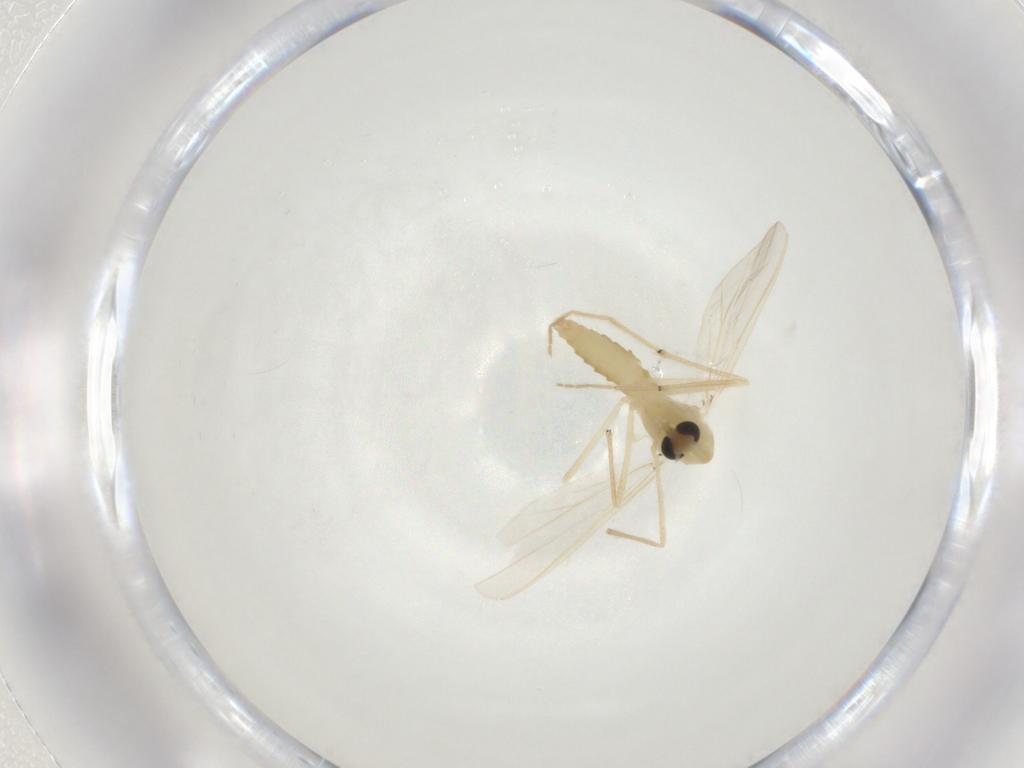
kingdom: Animalia
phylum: Arthropoda
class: Insecta
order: Diptera
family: Chironomidae
